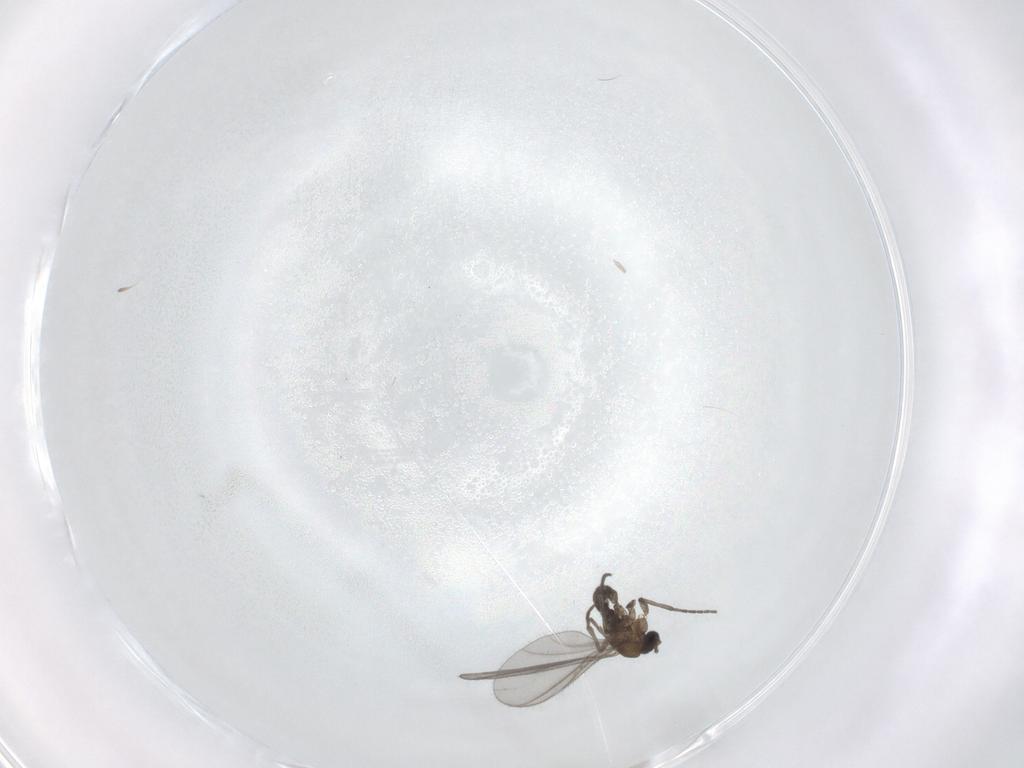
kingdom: Animalia
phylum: Arthropoda
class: Insecta
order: Diptera
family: Sciaridae
